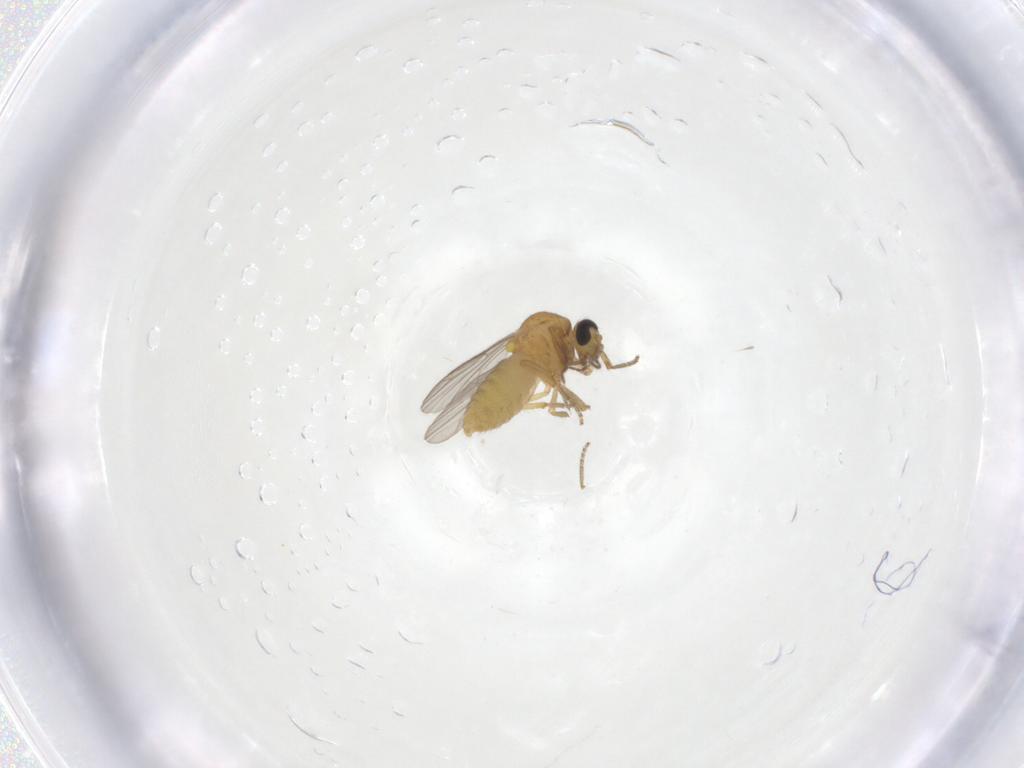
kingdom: Animalia
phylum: Arthropoda
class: Insecta
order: Diptera
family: Ceratopogonidae
